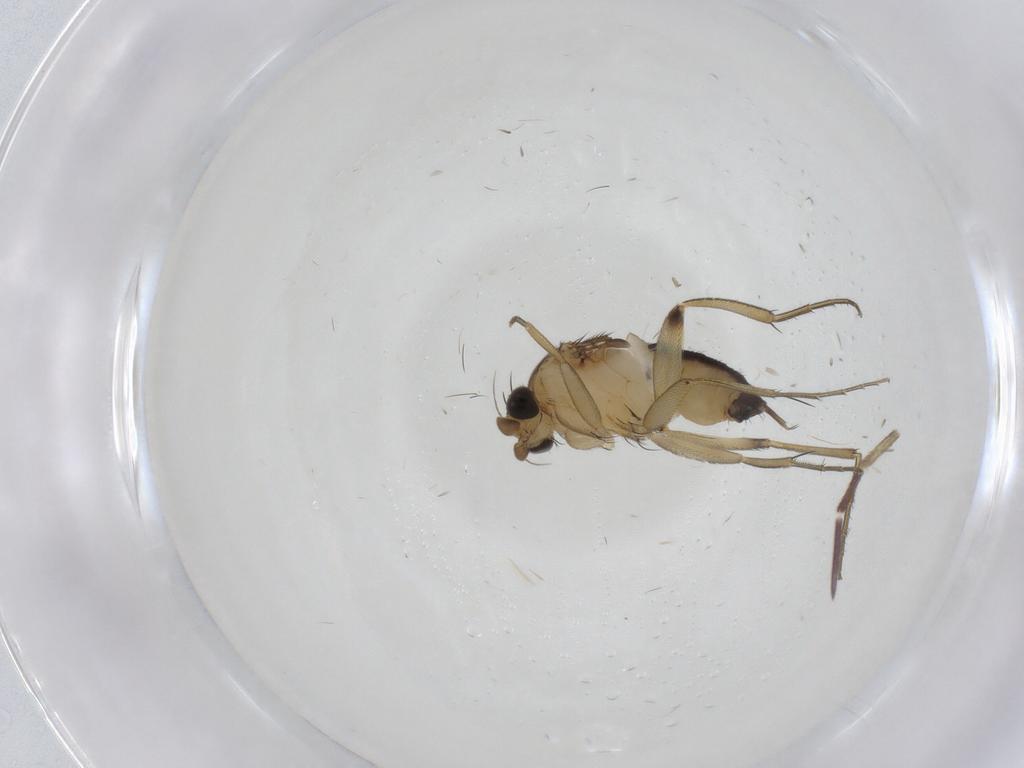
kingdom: Animalia
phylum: Arthropoda
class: Insecta
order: Diptera
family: Phoridae
